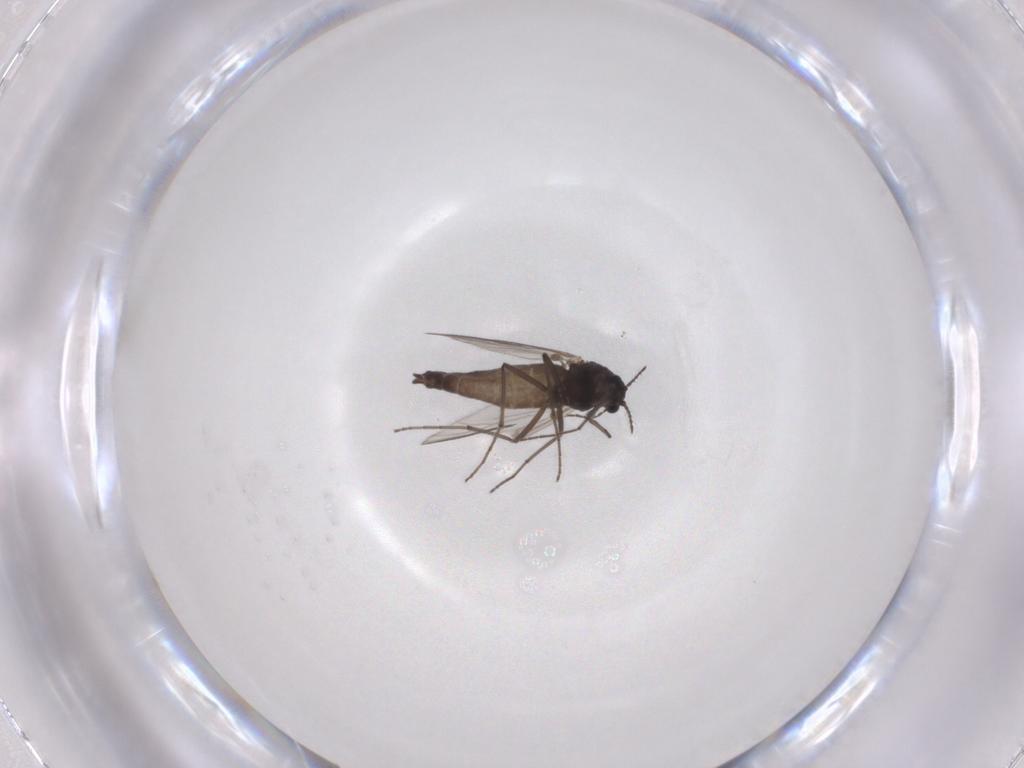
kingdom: Animalia
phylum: Arthropoda
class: Insecta
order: Diptera
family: Chironomidae
